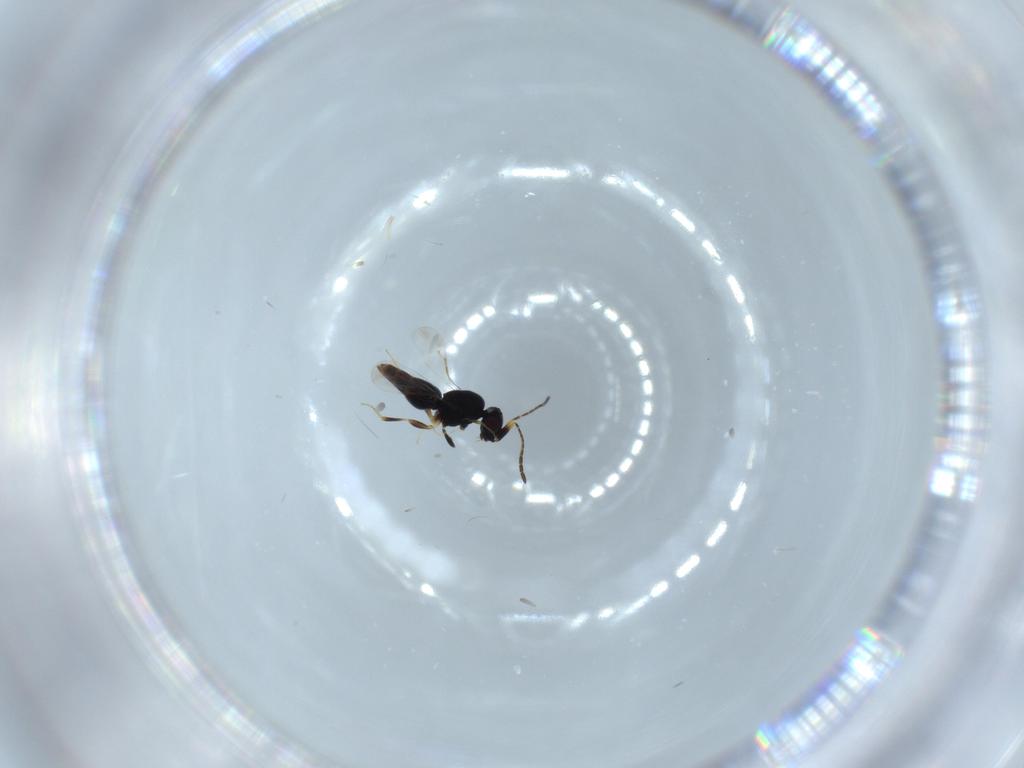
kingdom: Animalia
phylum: Arthropoda
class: Insecta
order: Hymenoptera
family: Ceraphronidae
